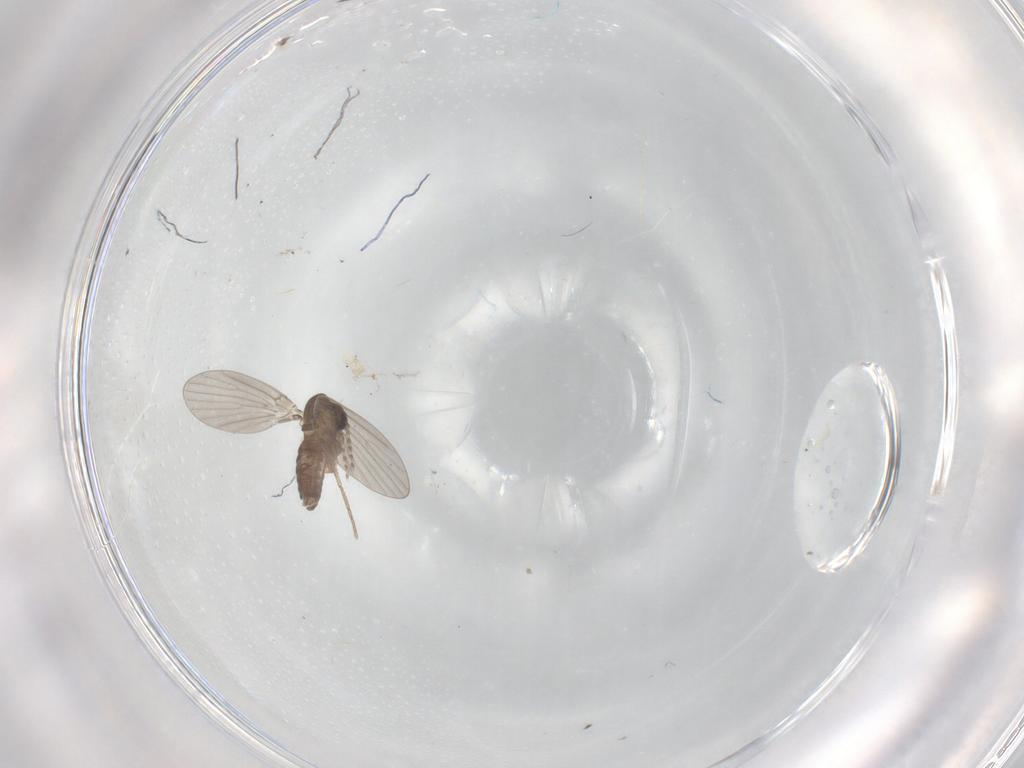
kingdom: Animalia
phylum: Arthropoda
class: Insecta
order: Diptera
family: Psychodidae
